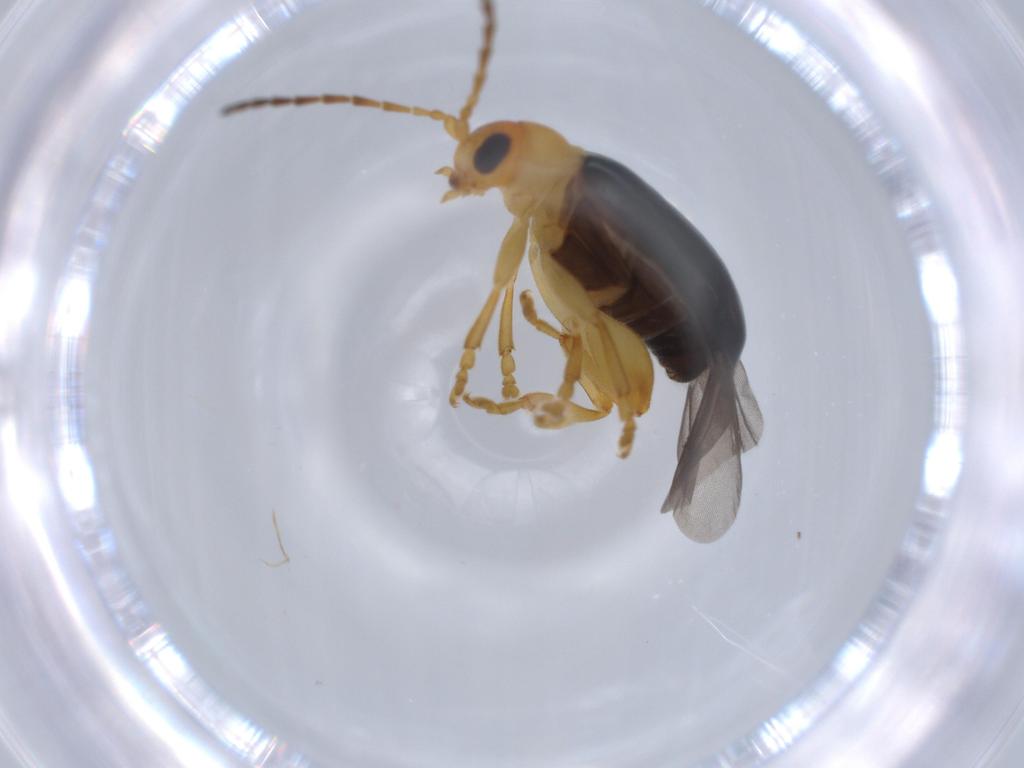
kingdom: Animalia
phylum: Arthropoda
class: Insecta
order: Coleoptera
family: Chrysomelidae
